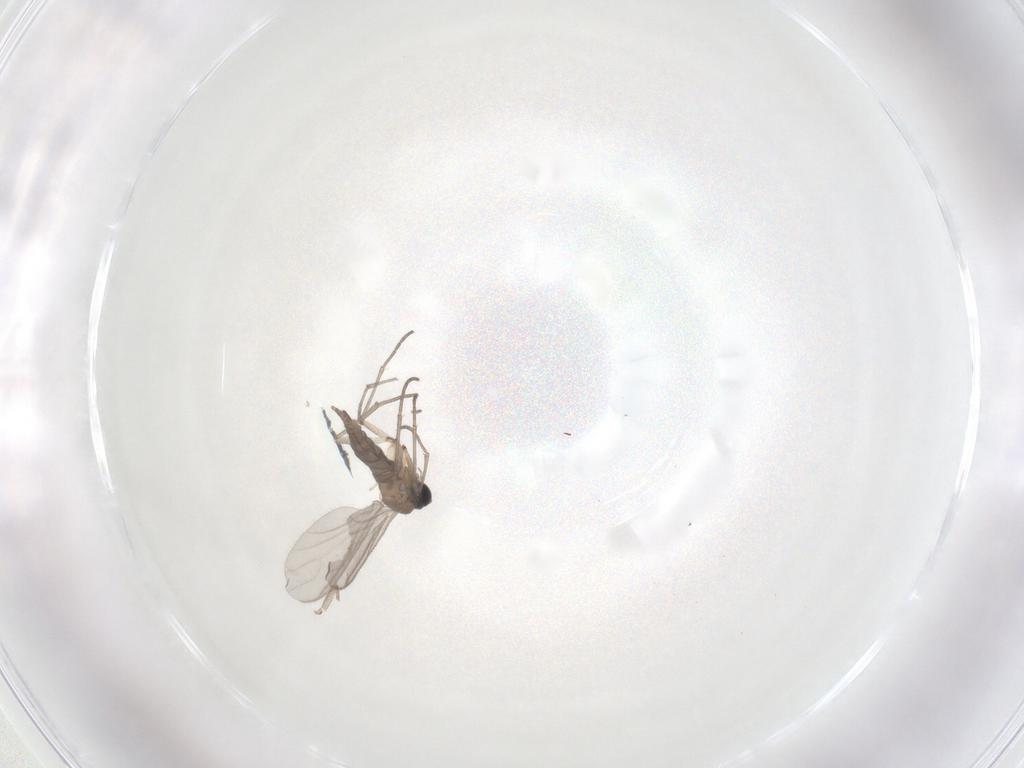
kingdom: Animalia
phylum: Arthropoda
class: Insecta
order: Diptera
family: Sciaridae
